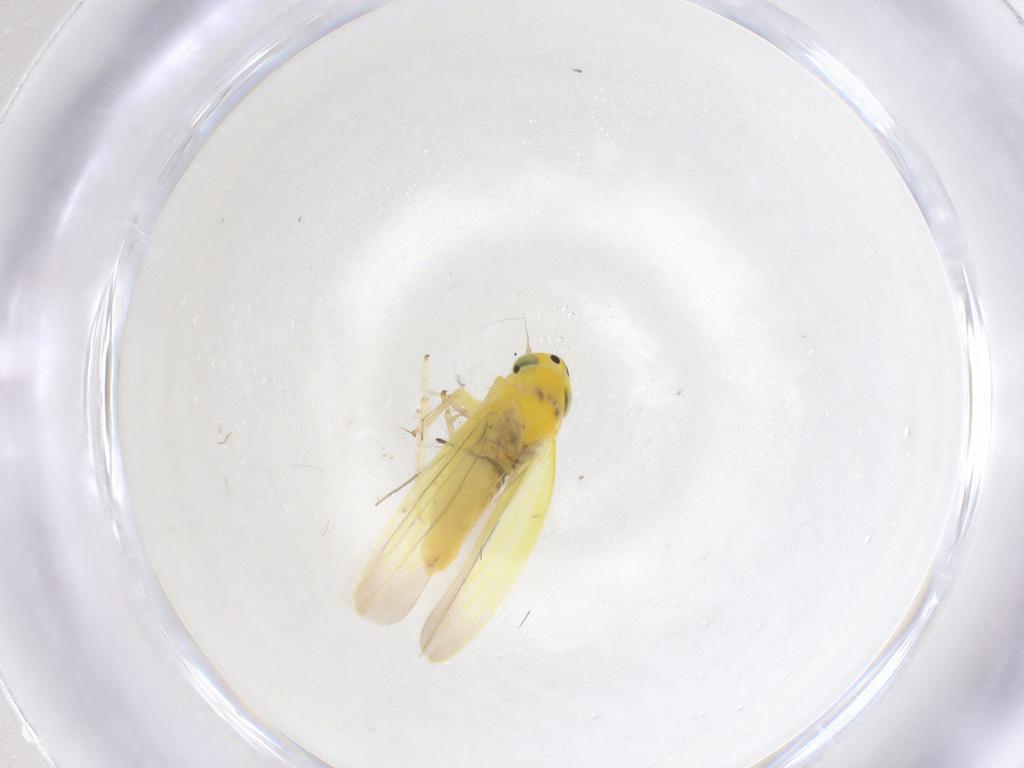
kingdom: Animalia
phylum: Arthropoda
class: Insecta
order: Hemiptera
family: Cicadellidae
